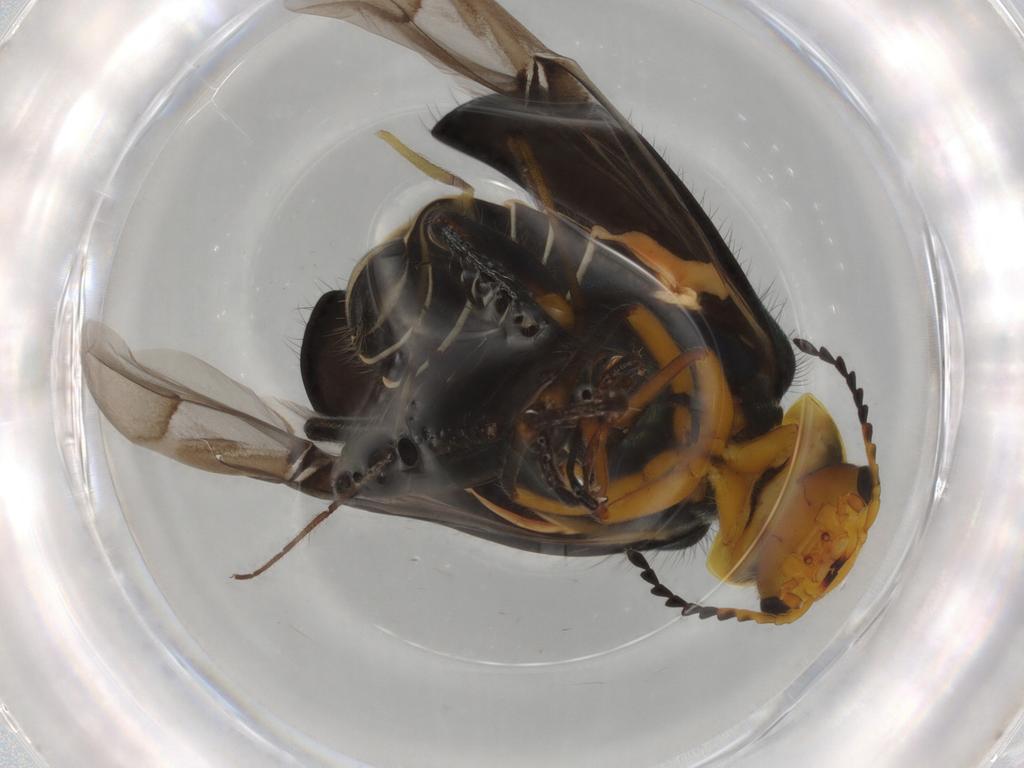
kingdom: Animalia
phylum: Arthropoda
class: Insecta
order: Coleoptera
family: Melyridae
